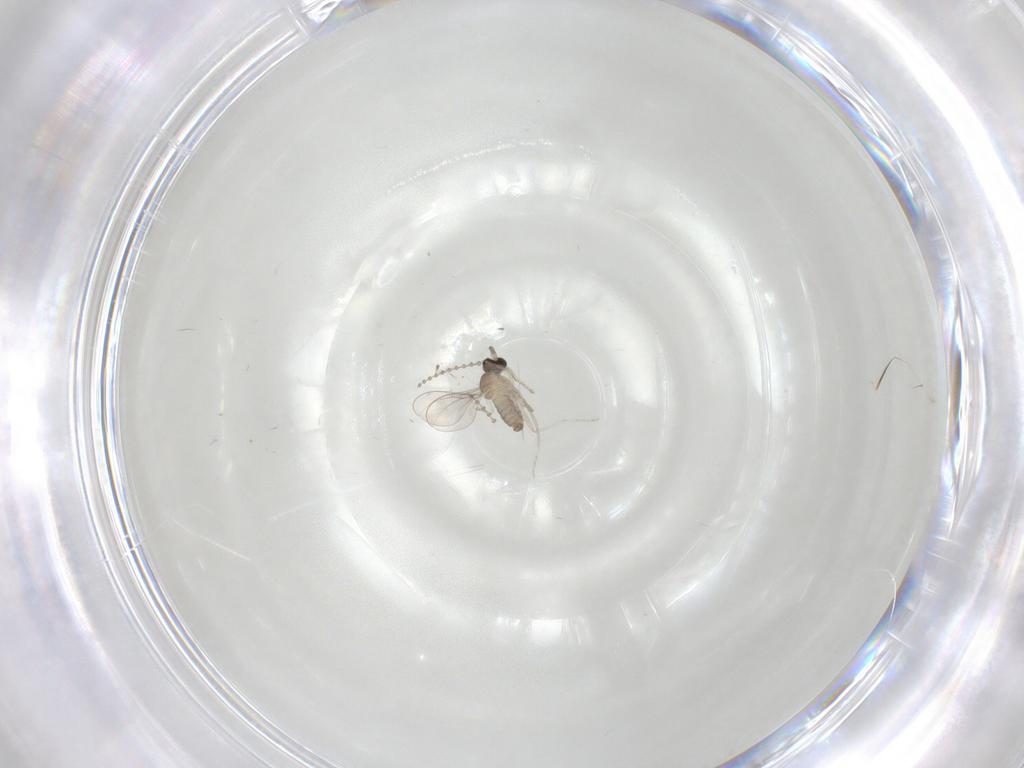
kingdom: Animalia
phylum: Arthropoda
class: Insecta
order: Diptera
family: Cecidomyiidae
